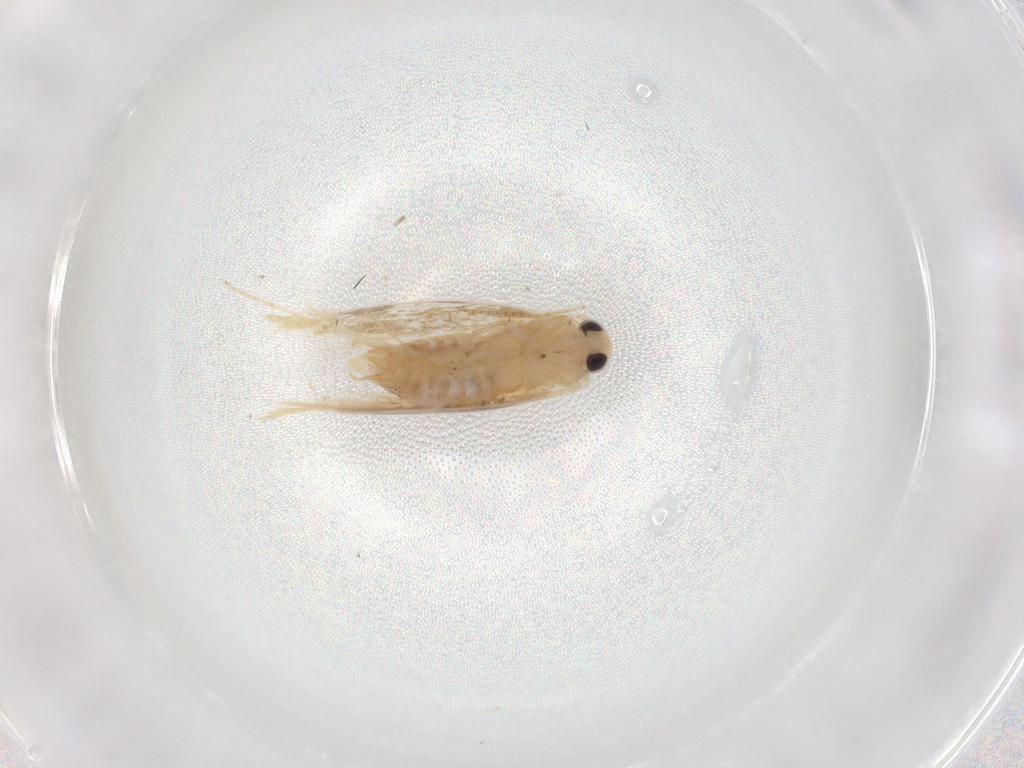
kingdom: Animalia
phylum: Arthropoda
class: Insecta
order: Lepidoptera
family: Bucculatricidae
